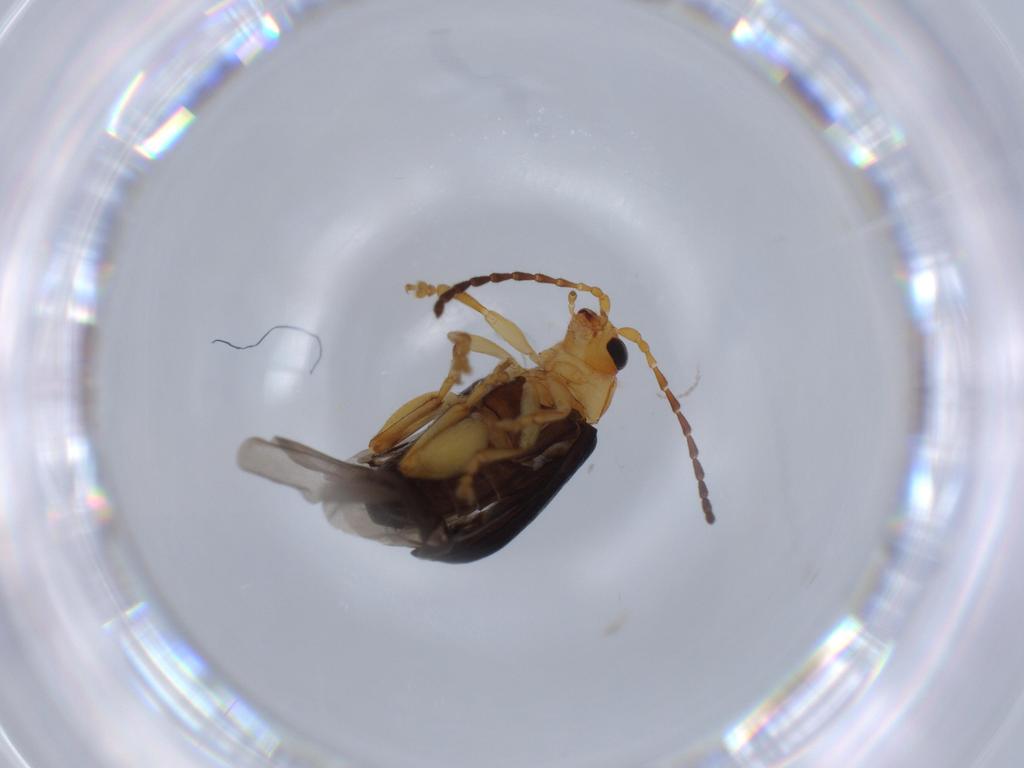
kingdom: Animalia
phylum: Arthropoda
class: Insecta
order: Coleoptera
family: Chrysomelidae
